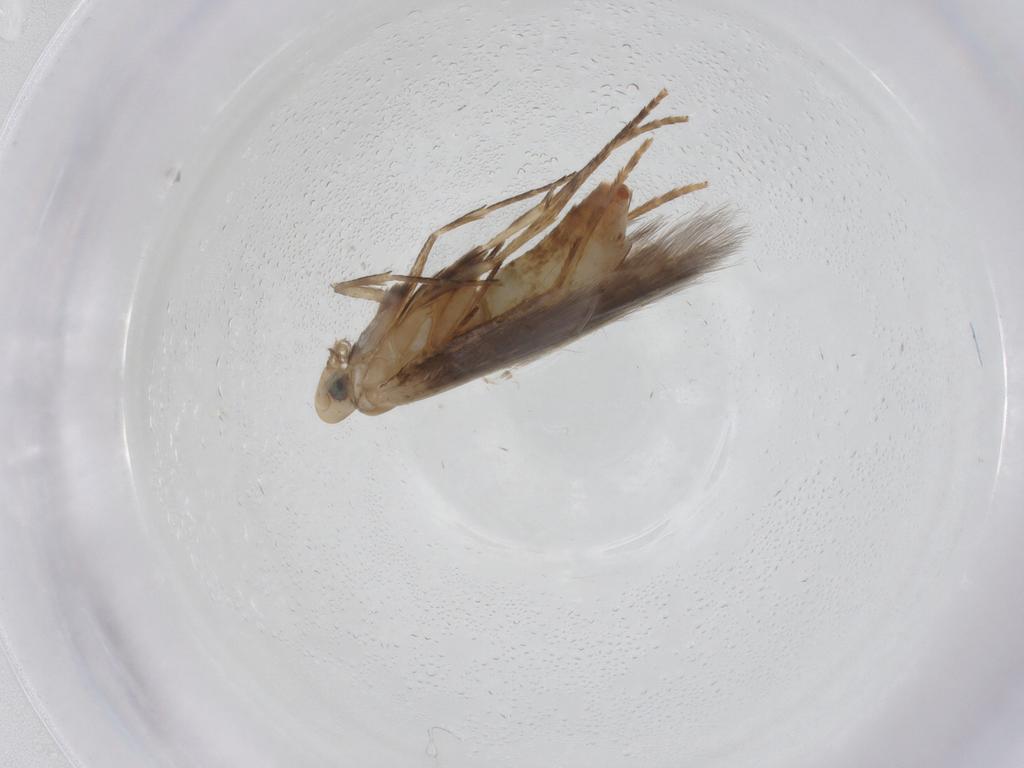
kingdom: Animalia
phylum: Arthropoda
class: Insecta
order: Lepidoptera
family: Lycaenidae
